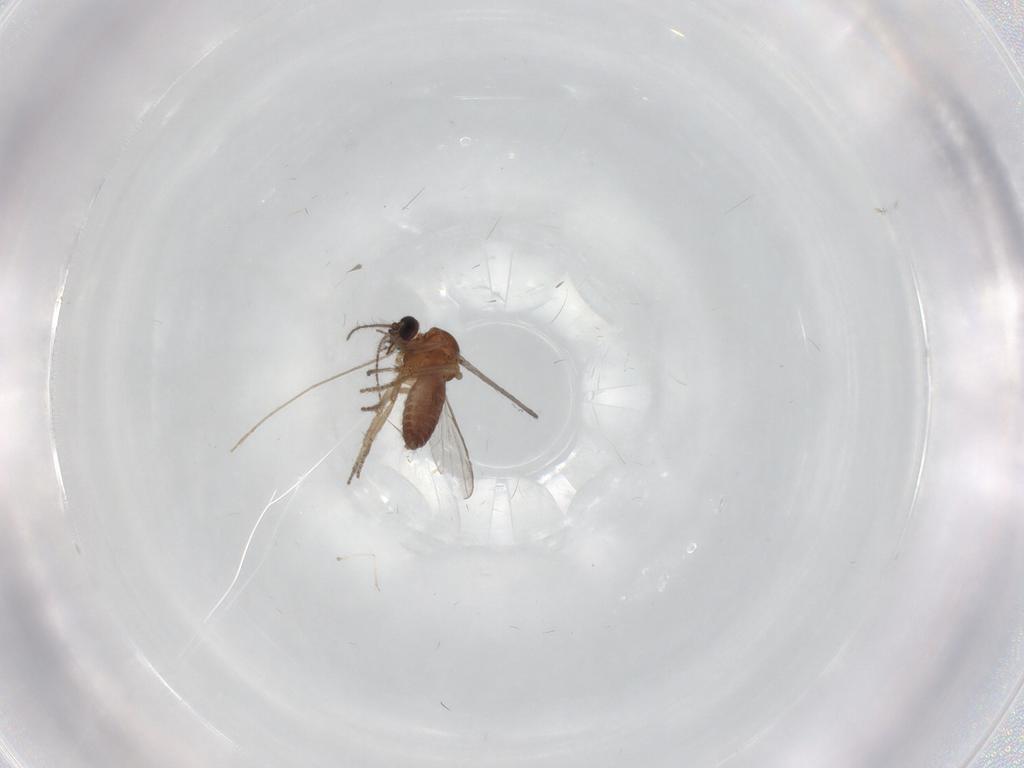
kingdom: Animalia
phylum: Arthropoda
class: Insecta
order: Diptera
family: Ceratopogonidae
